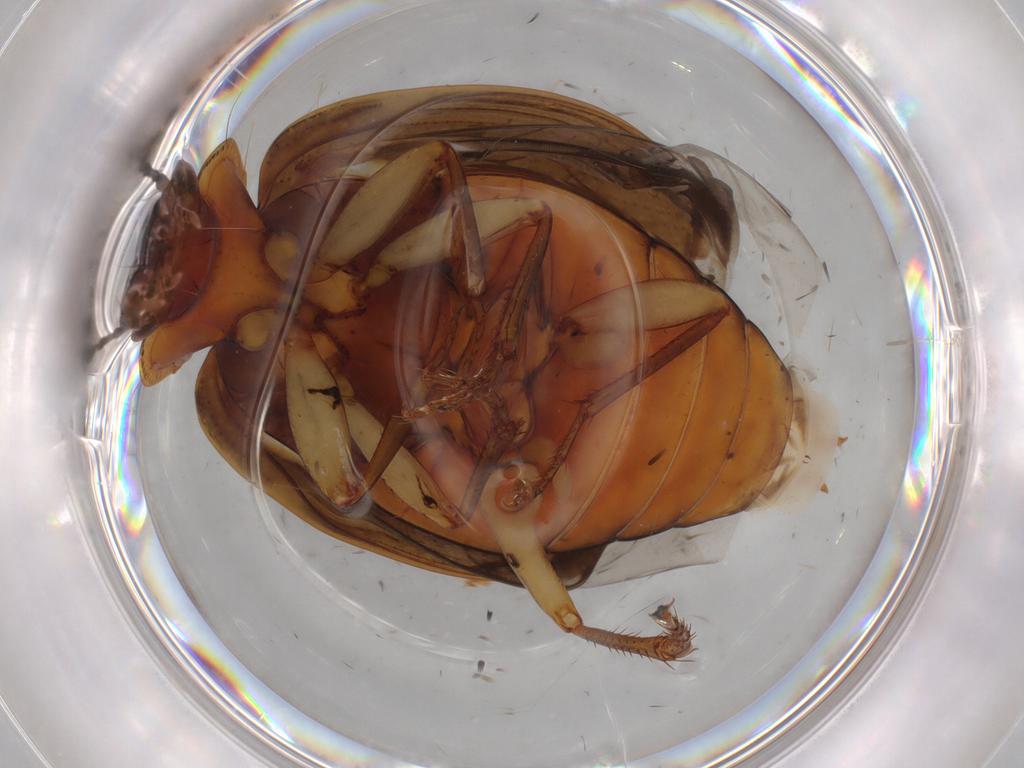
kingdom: Animalia
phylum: Arthropoda
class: Insecta
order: Coleoptera
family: Carabidae
